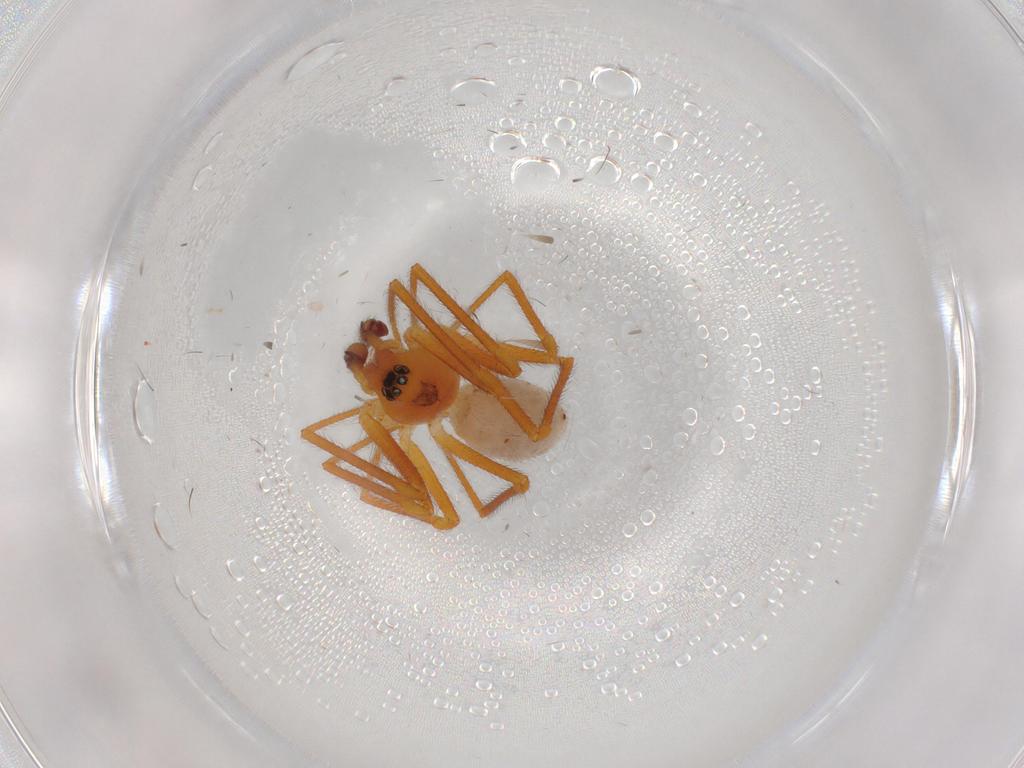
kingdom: Animalia
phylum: Arthropoda
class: Arachnida
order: Araneae
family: Linyphiidae
